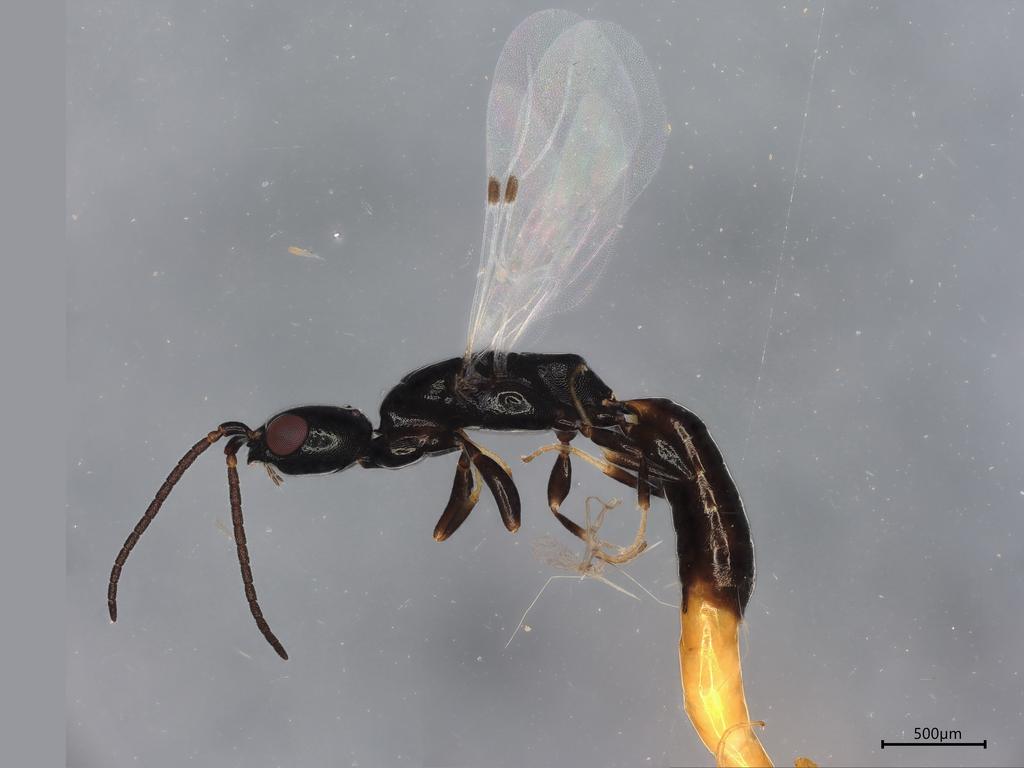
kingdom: Animalia
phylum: Arthropoda
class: Insecta
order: Hymenoptera
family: Bethylidae
